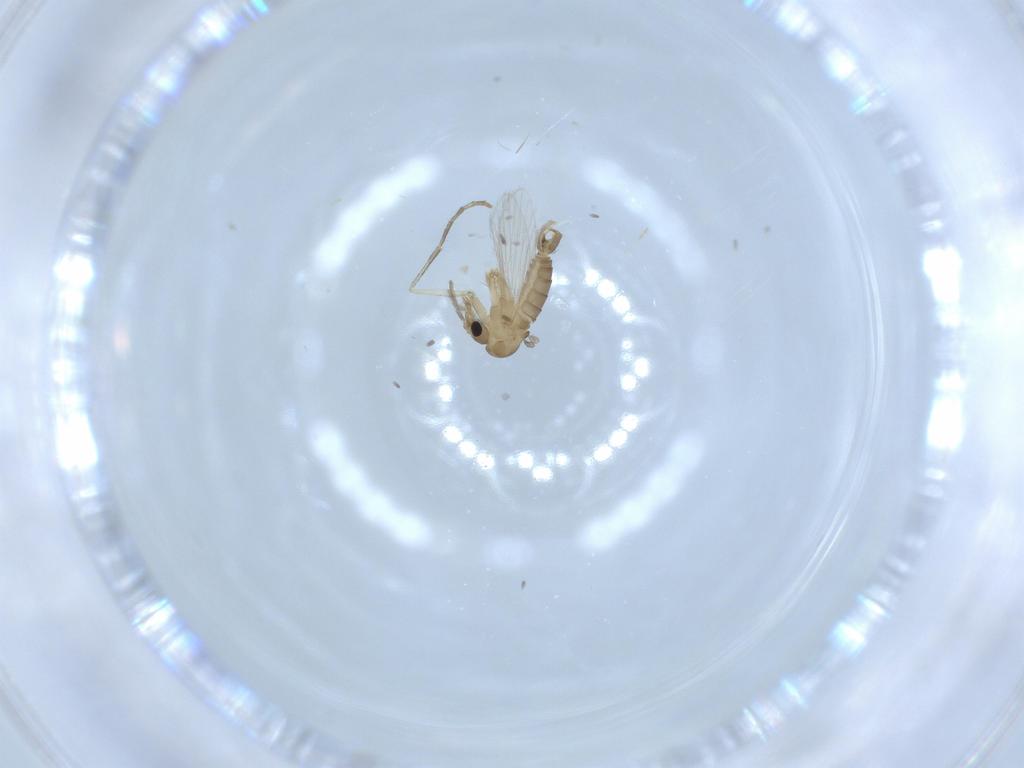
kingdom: Animalia
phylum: Arthropoda
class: Insecta
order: Diptera
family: Psychodidae
